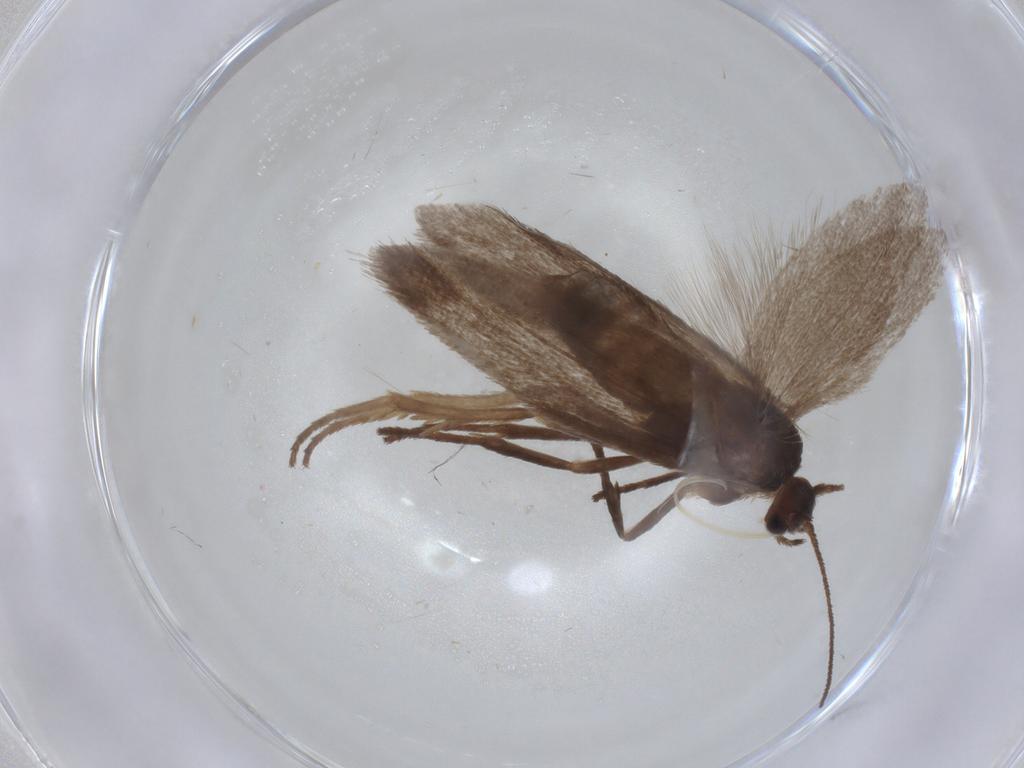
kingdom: Animalia
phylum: Arthropoda
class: Insecta
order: Lepidoptera
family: Limacodidae
